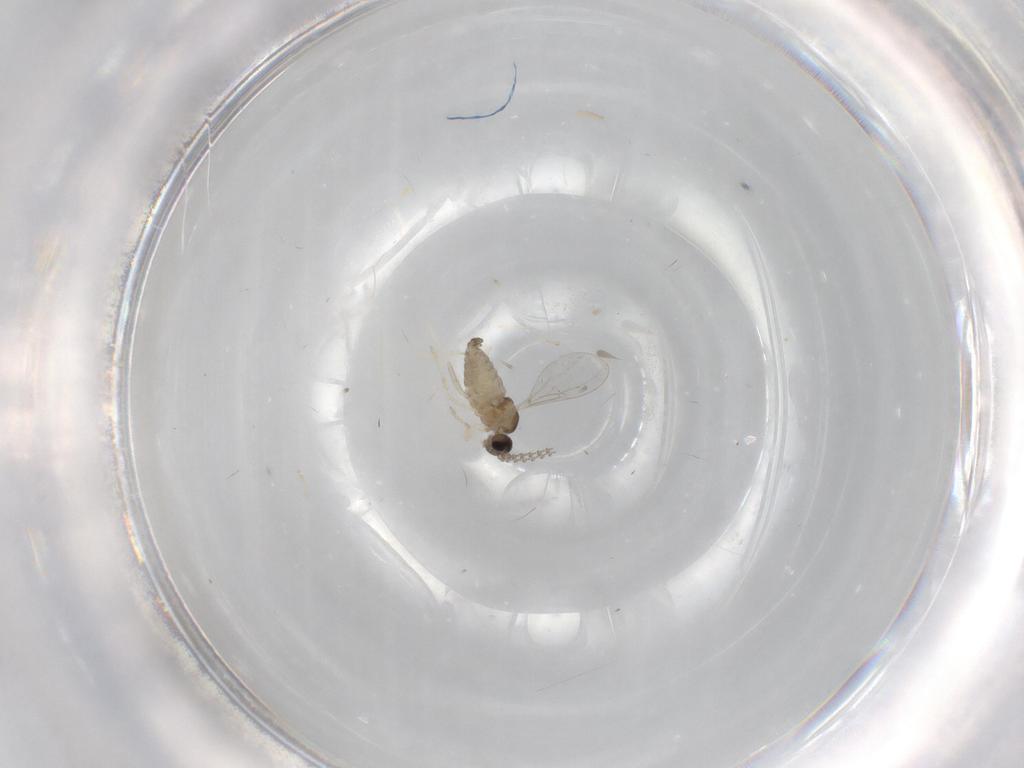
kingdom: Animalia
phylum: Arthropoda
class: Insecta
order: Diptera
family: Cecidomyiidae
